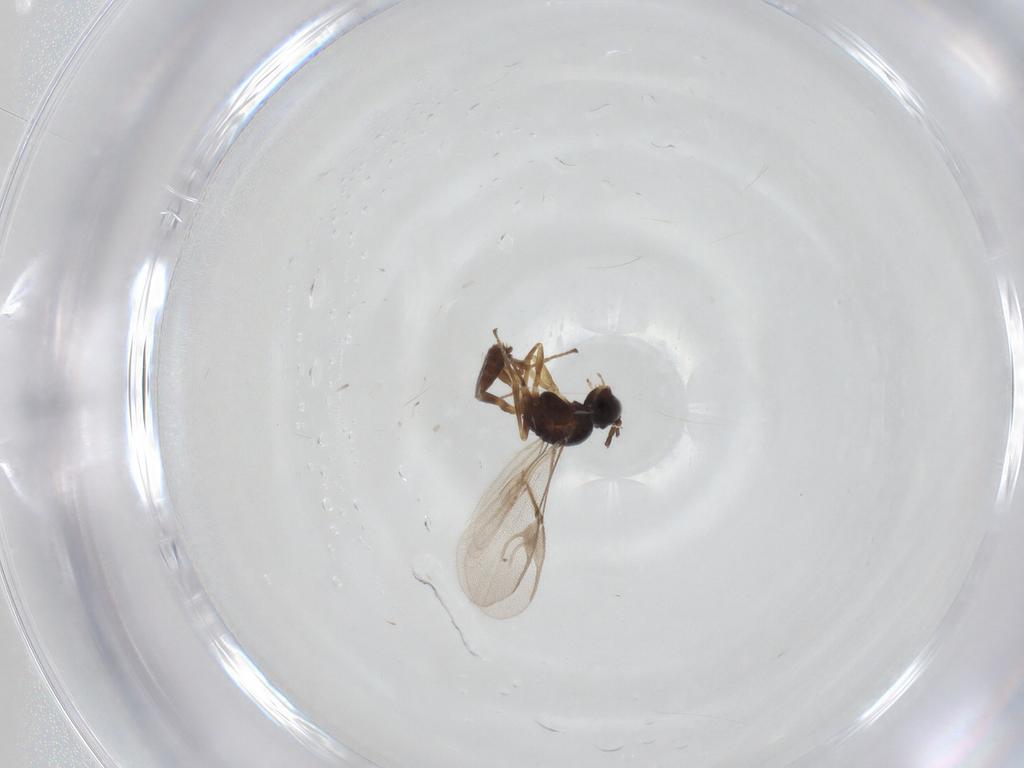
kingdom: Animalia
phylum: Arthropoda
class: Insecta
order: Hymenoptera
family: Braconidae
